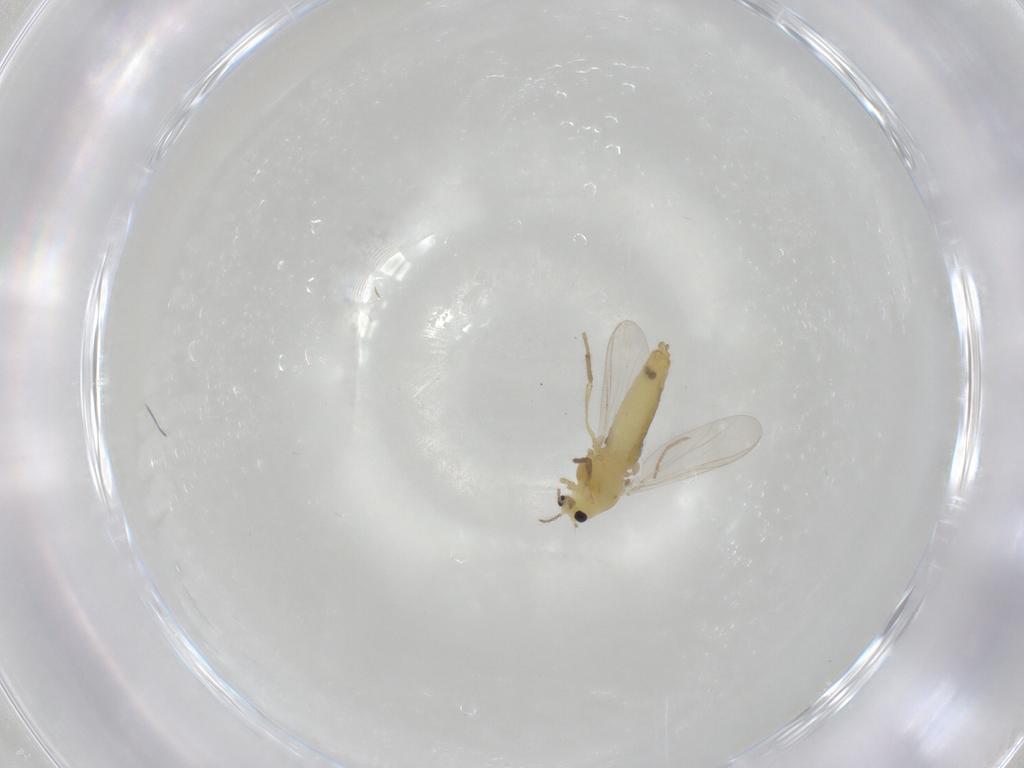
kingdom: Animalia
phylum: Arthropoda
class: Insecta
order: Diptera
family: Chironomidae
